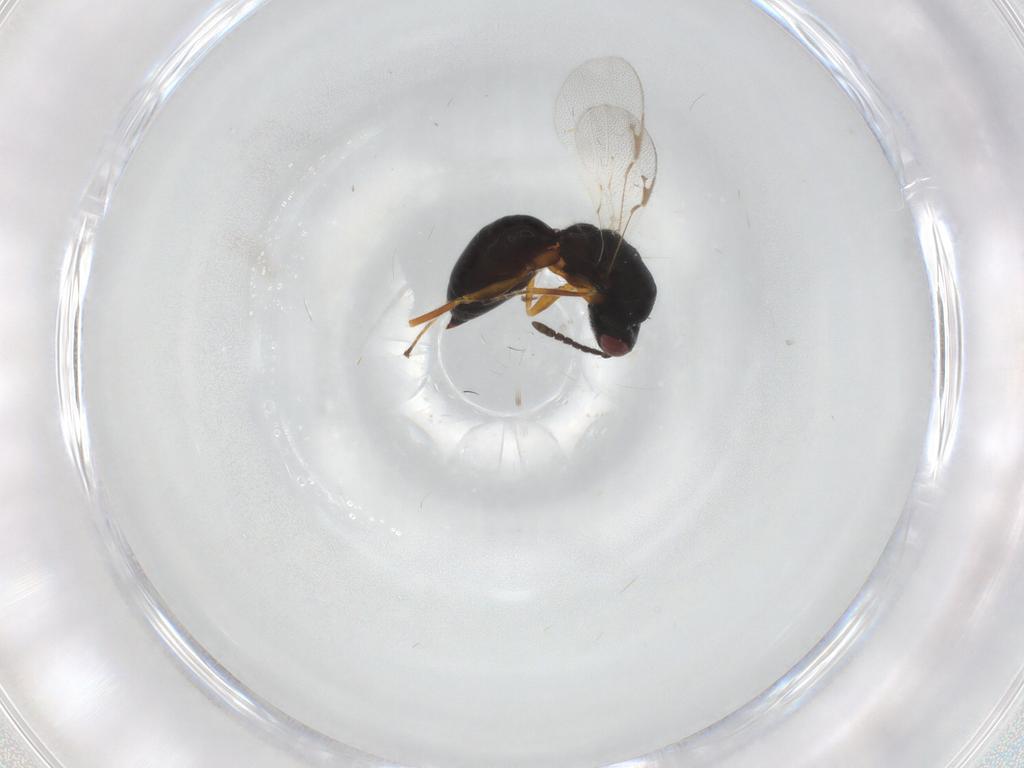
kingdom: Animalia
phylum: Arthropoda
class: Insecta
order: Hymenoptera
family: Eurytomidae
